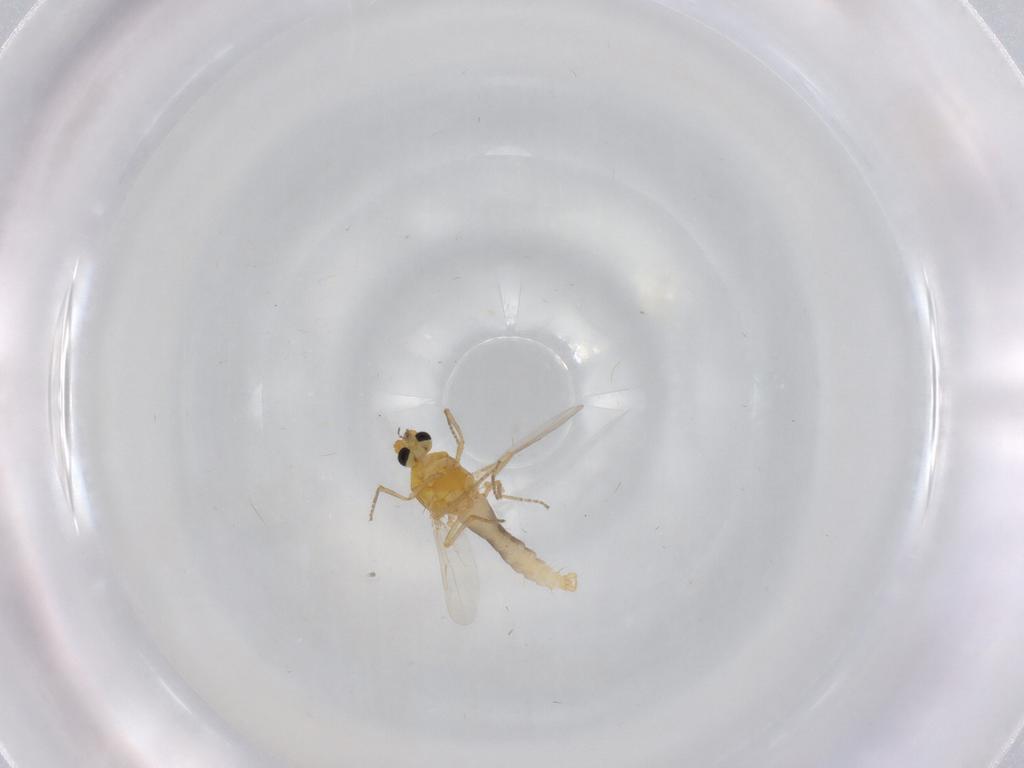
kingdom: Animalia
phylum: Arthropoda
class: Insecta
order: Diptera
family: Ceratopogonidae
